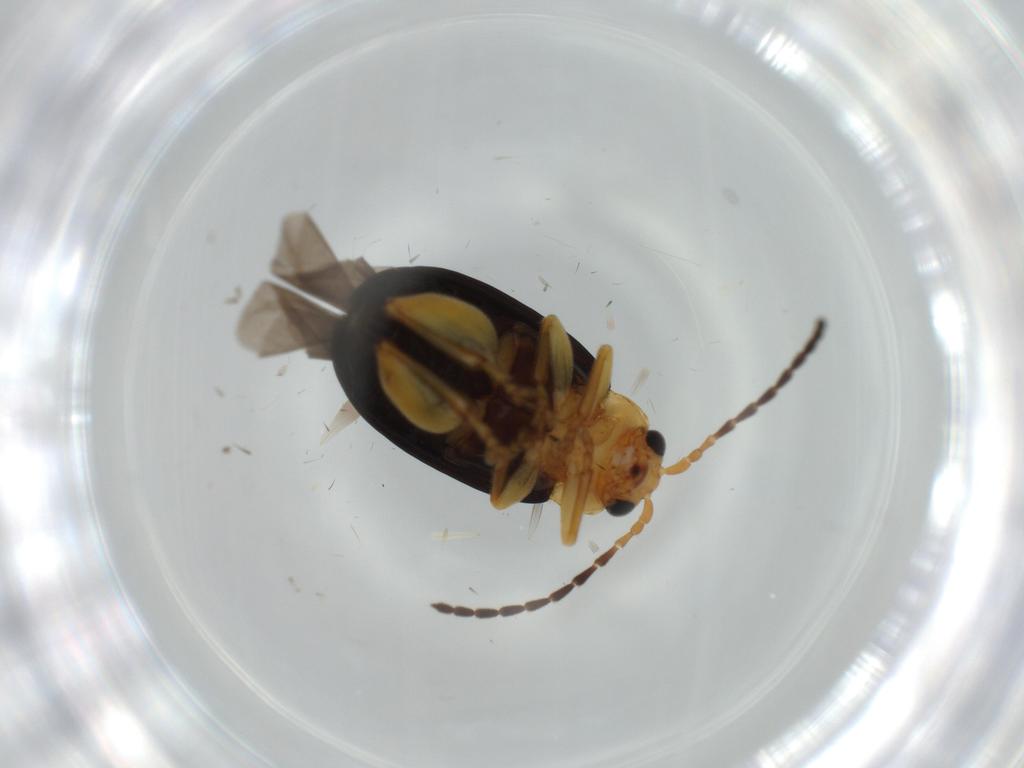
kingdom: Animalia
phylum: Arthropoda
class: Insecta
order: Coleoptera
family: Chrysomelidae
